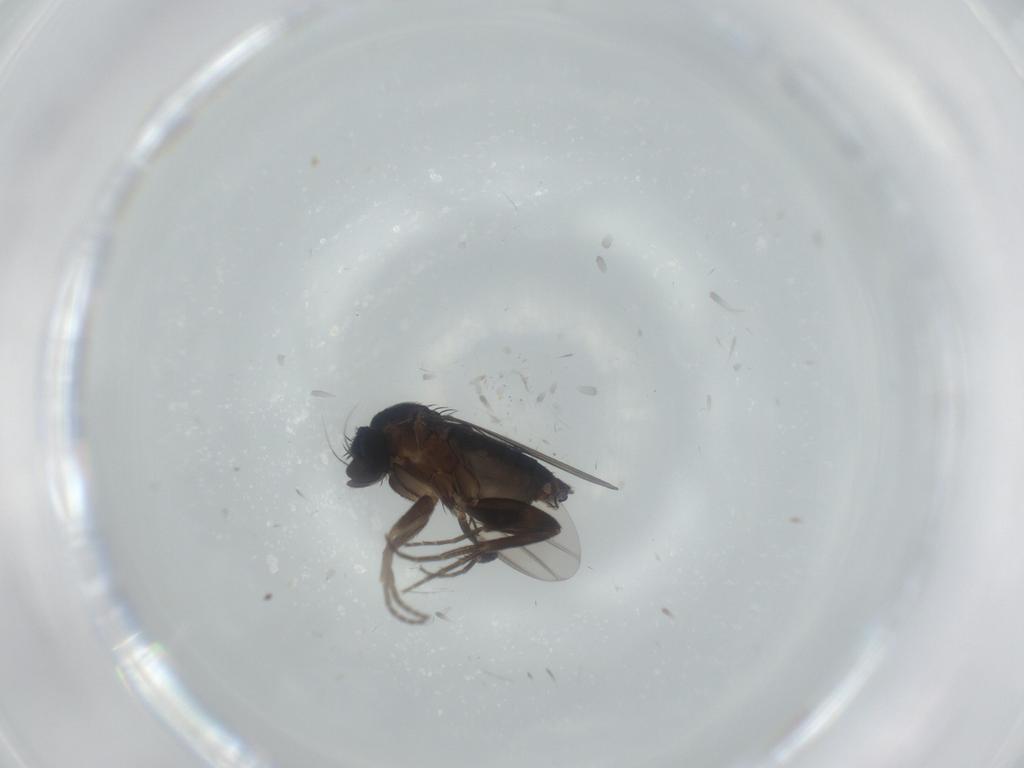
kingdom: Animalia
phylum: Arthropoda
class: Insecta
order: Diptera
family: Phoridae
